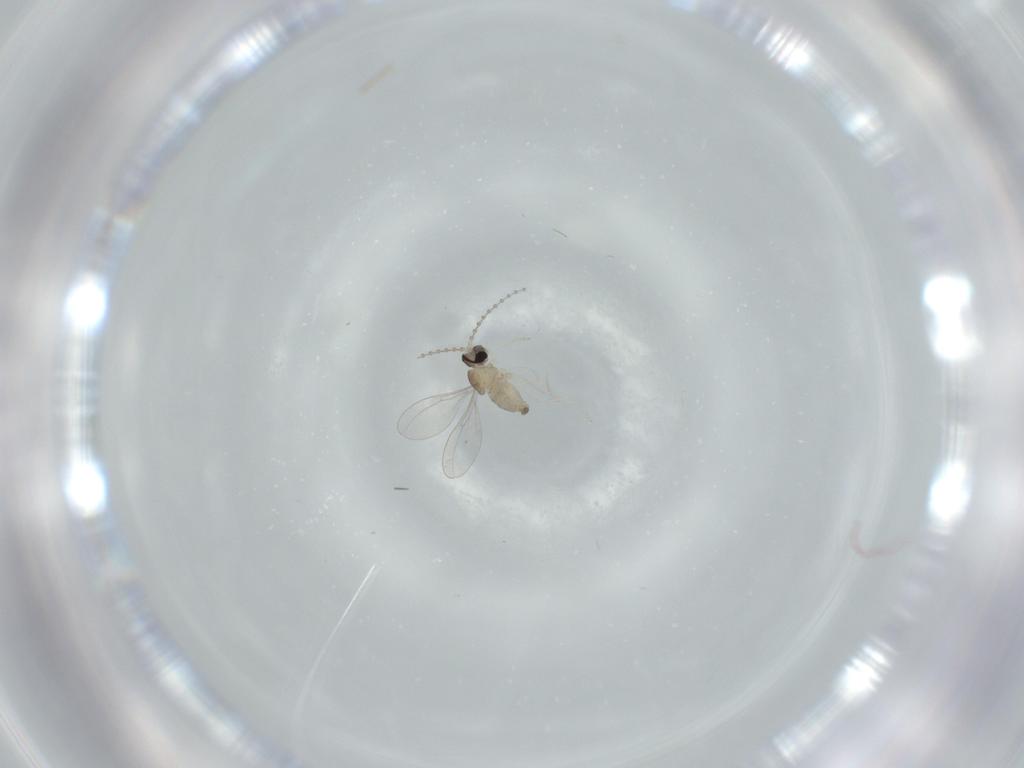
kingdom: Animalia
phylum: Arthropoda
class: Insecta
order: Diptera
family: Cecidomyiidae
